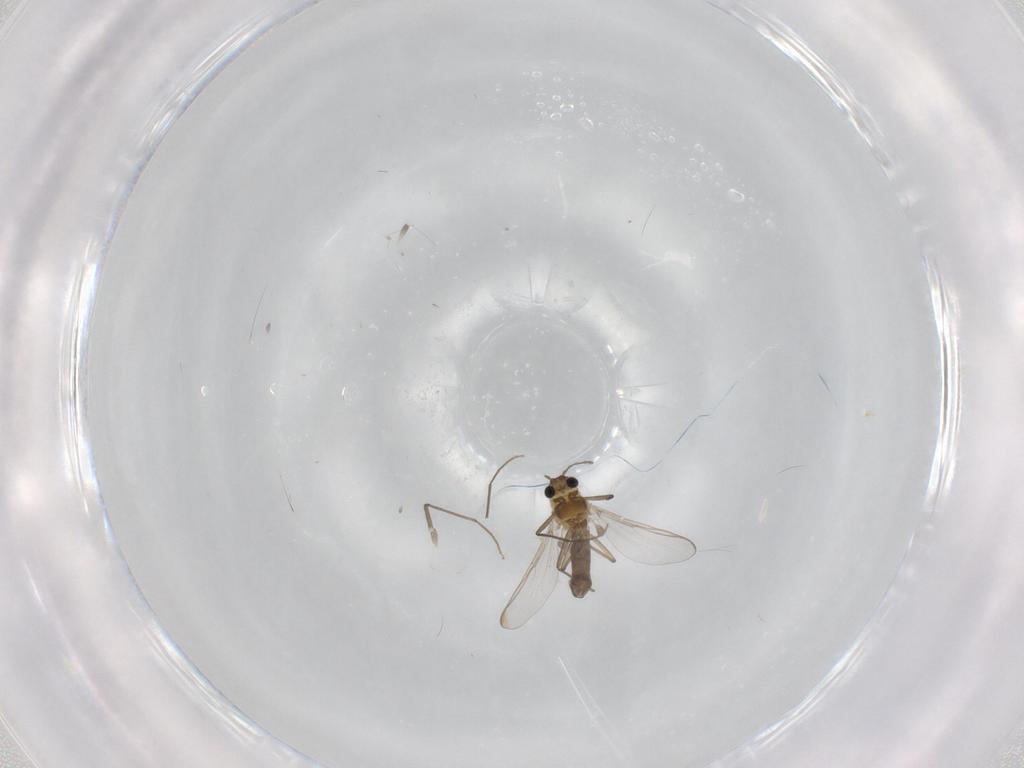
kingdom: Animalia
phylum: Arthropoda
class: Insecta
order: Diptera
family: Chironomidae
